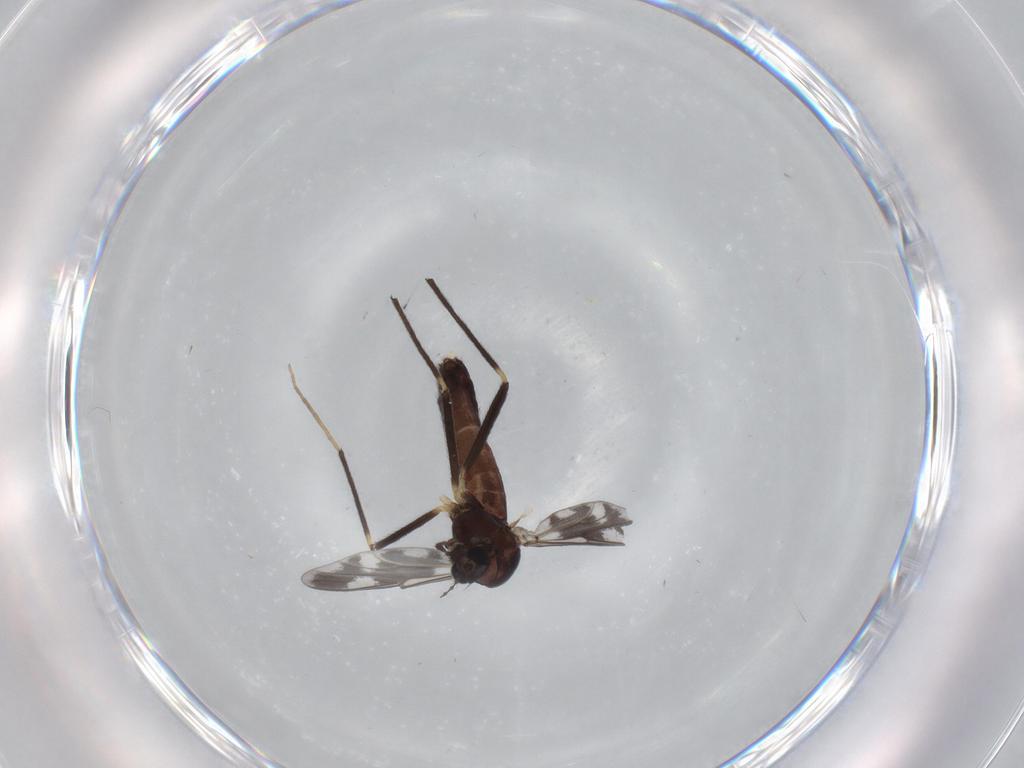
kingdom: Animalia
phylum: Arthropoda
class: Insecta
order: Diptera
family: Chironomidae
